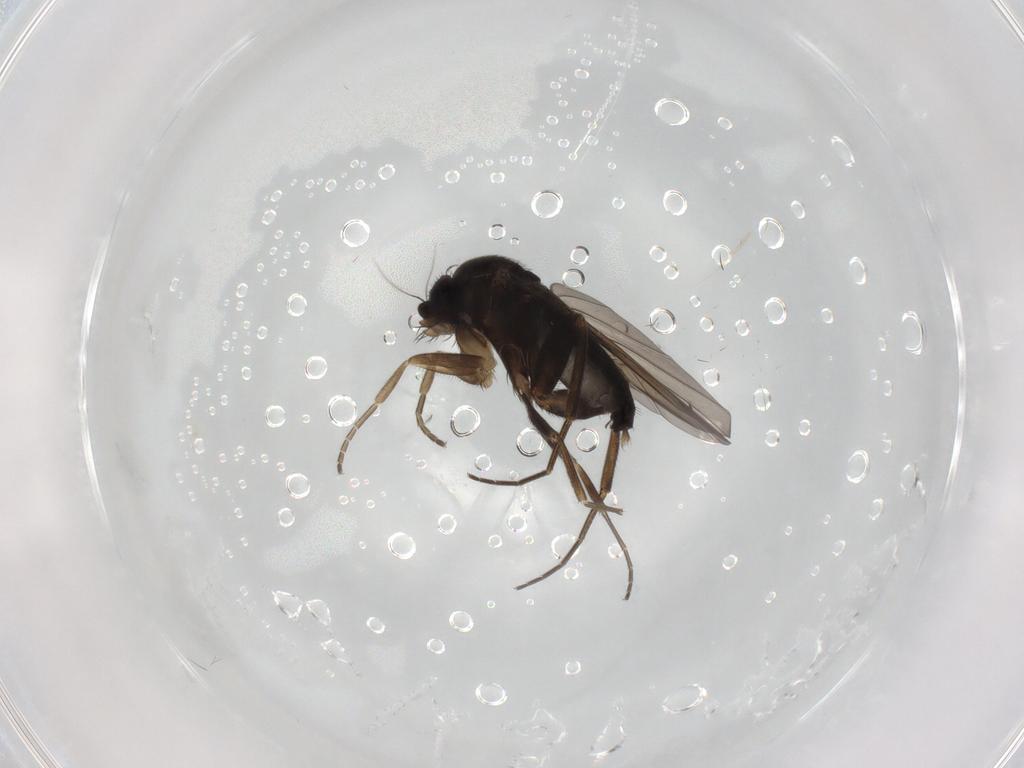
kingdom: Animalia
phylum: Arthropoda
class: Insecta
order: Diptera
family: Phoridae
